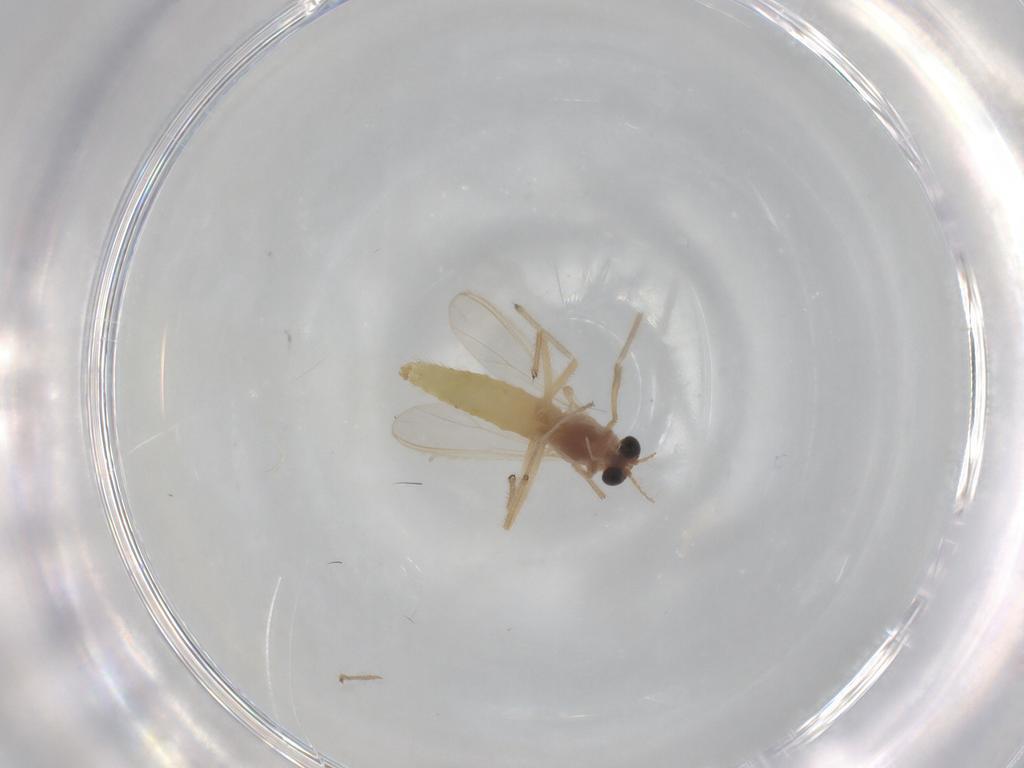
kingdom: Animalia
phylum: Arthropoda
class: Insecta
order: Diptera
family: Chironomidae
